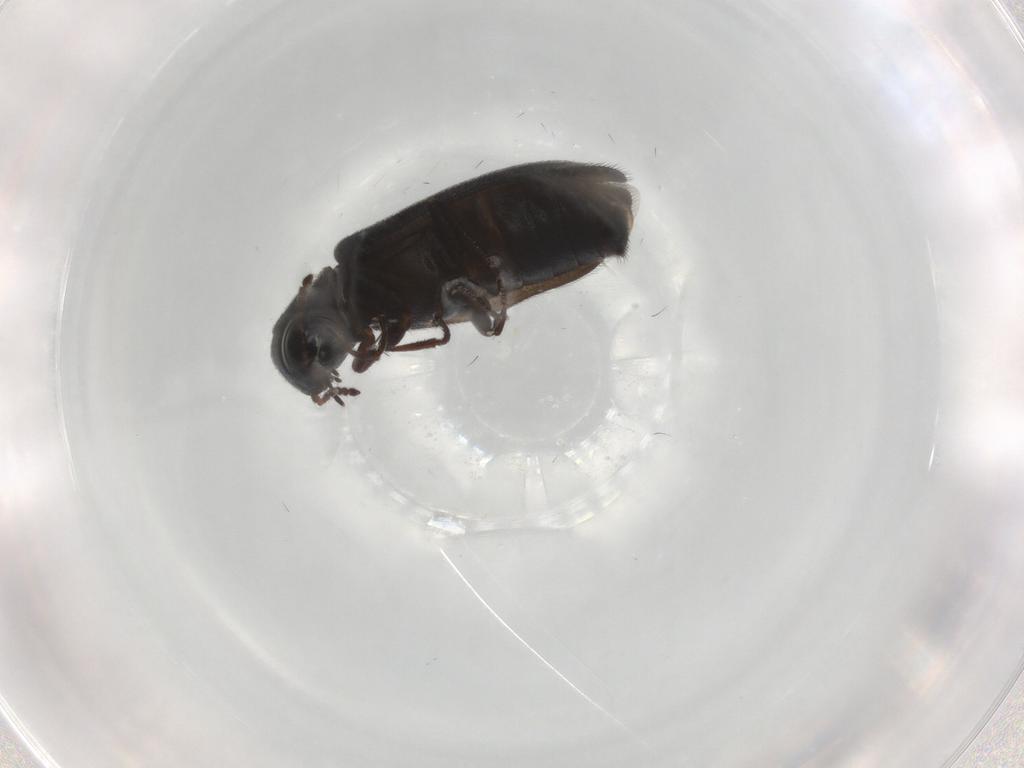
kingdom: Animalia
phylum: Arthropoda
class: Insecta
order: Coleoptera
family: Melyridae
